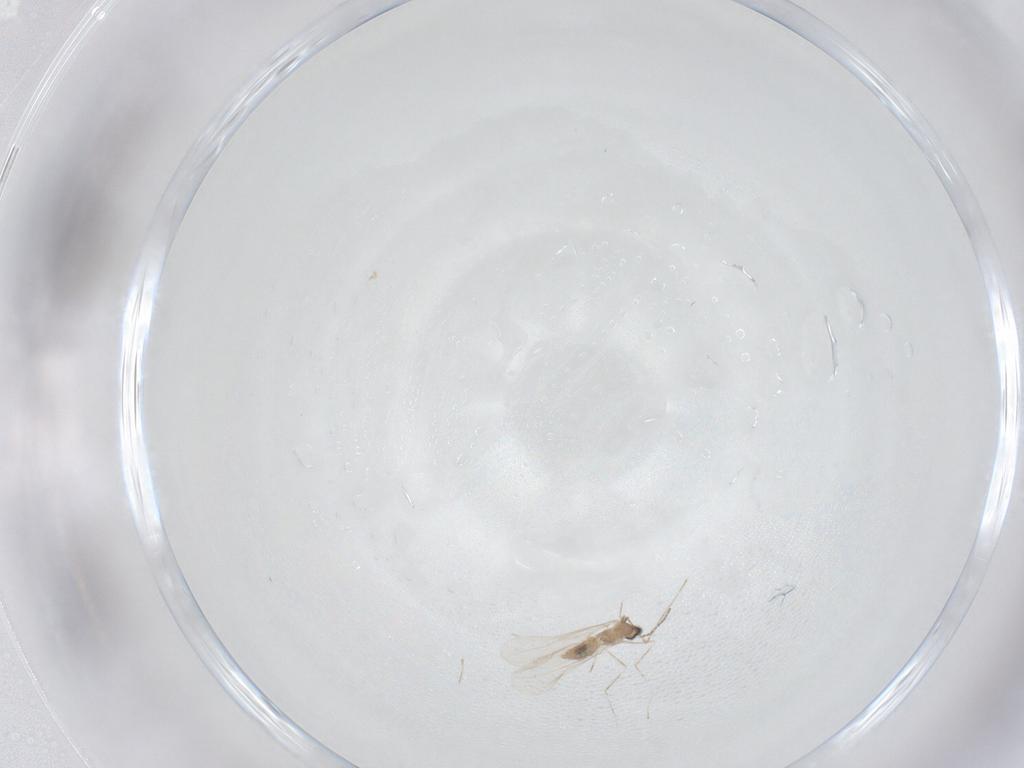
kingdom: Animalia
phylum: Arthropoda
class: Insecta
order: Diptera
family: Cecidomyiidae
